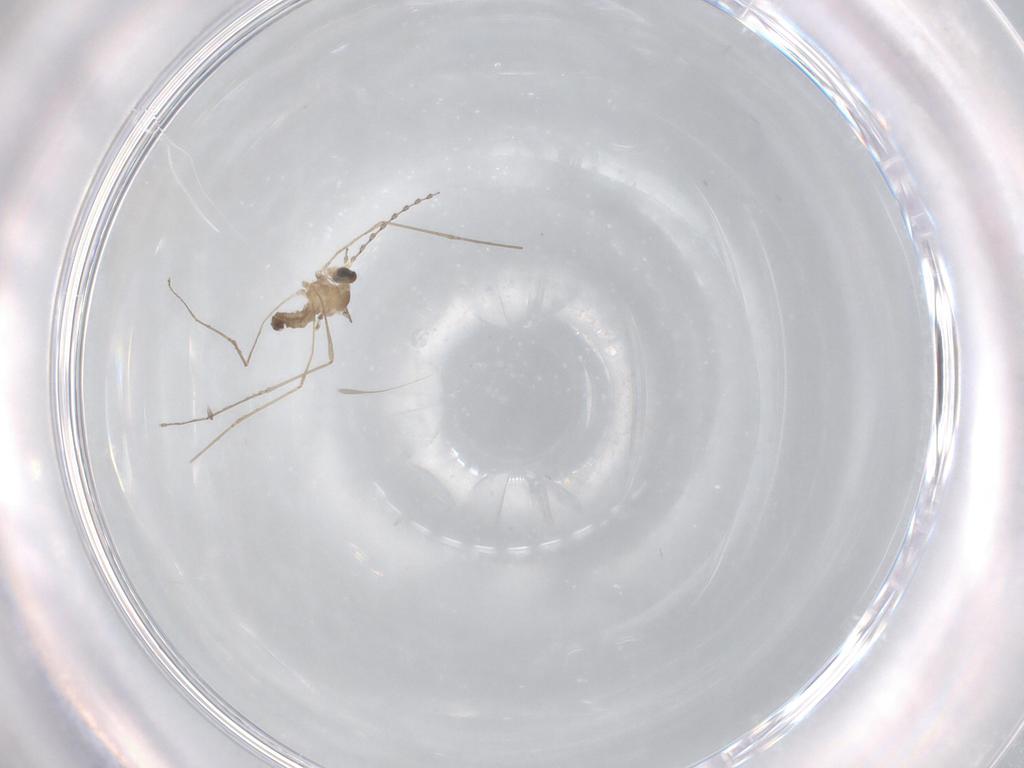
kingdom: Animalia
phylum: Arthropoda
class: Insecta
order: Diptera
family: Cecidomyiidae
